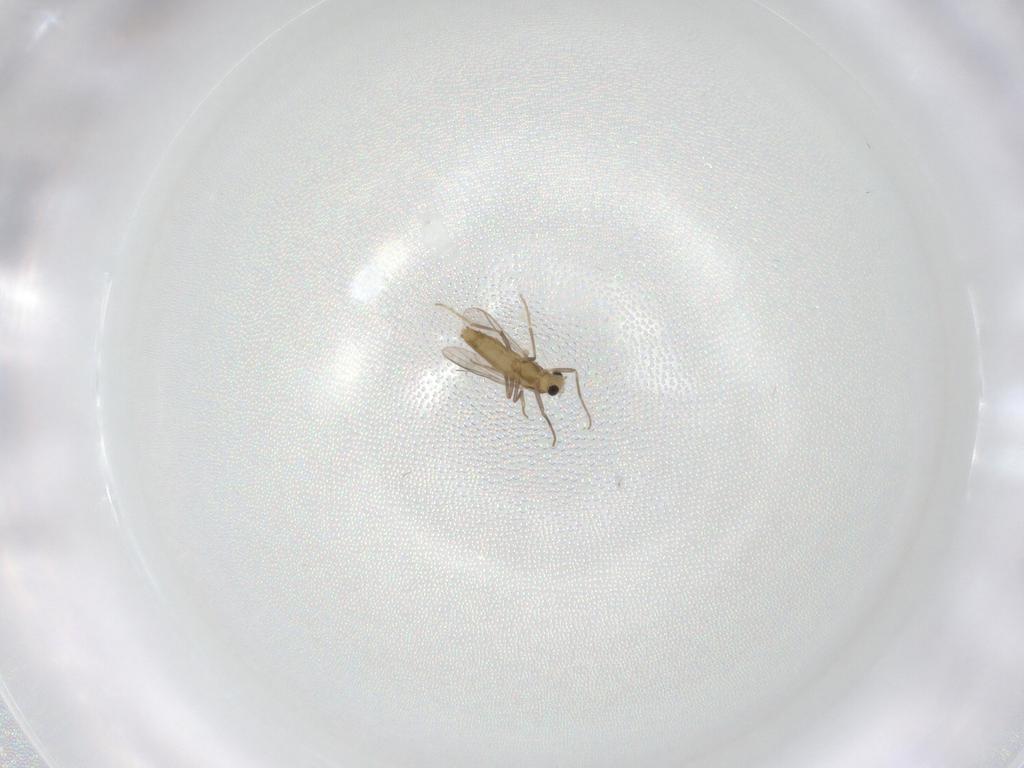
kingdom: Animalia
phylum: Arthropoda
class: Insecta
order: Diptera
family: Chironomidae
